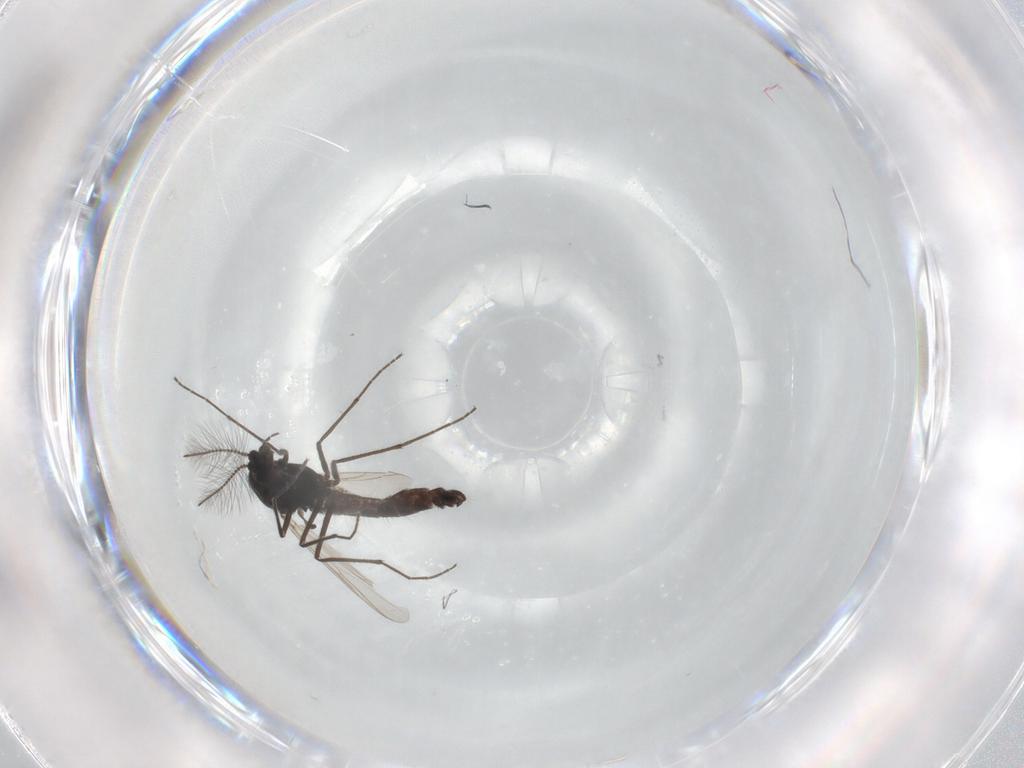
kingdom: Animalia
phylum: Arthropoda
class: Insecta
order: Diptera
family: Chironomidae
